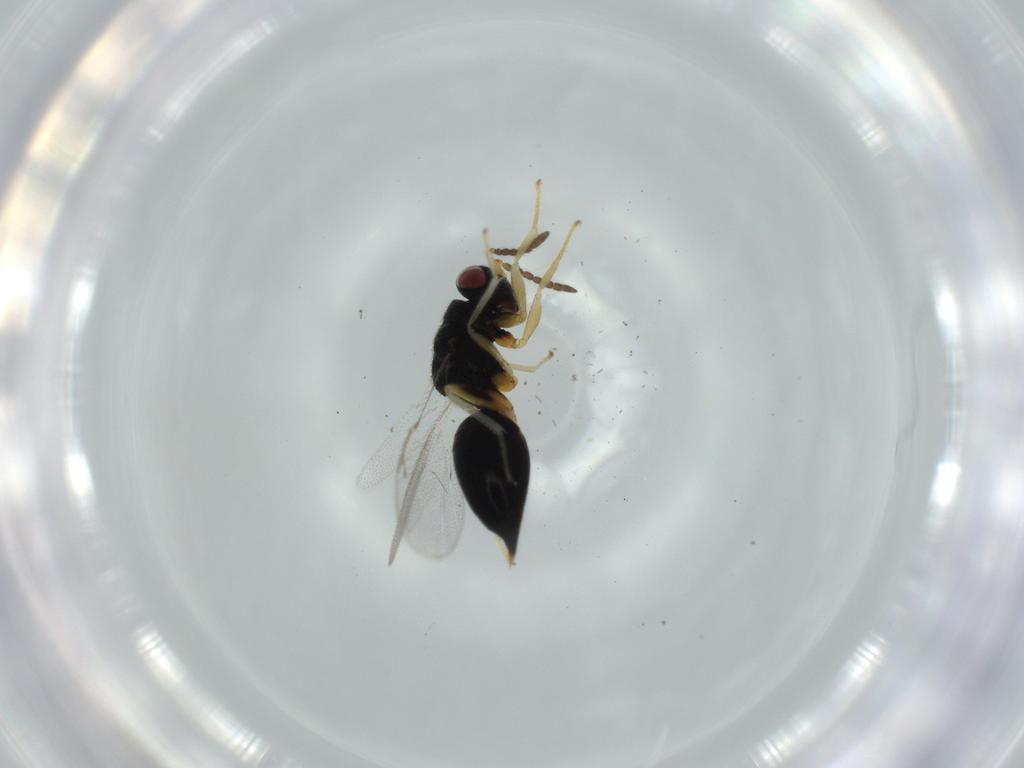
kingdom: Animalia
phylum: Arthropoda
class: Insecta
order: Hymenoptera
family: Eurytomidae
